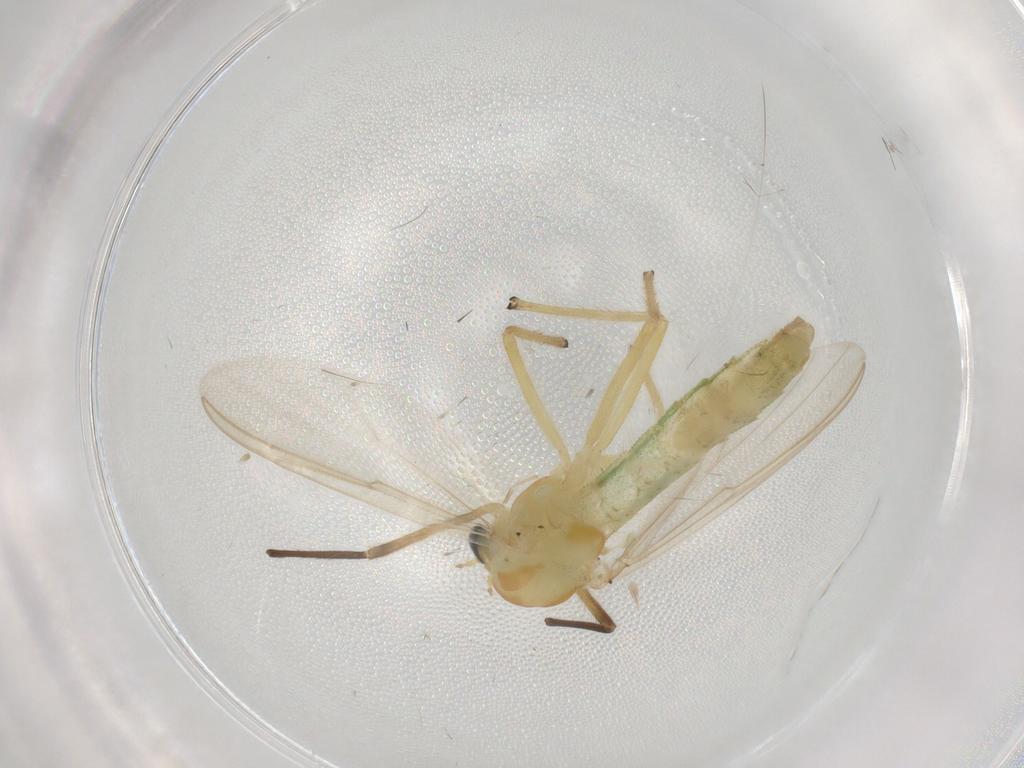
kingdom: Animalia
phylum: Arthropoda
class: Insecta
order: Diptera
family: Chironomidae
